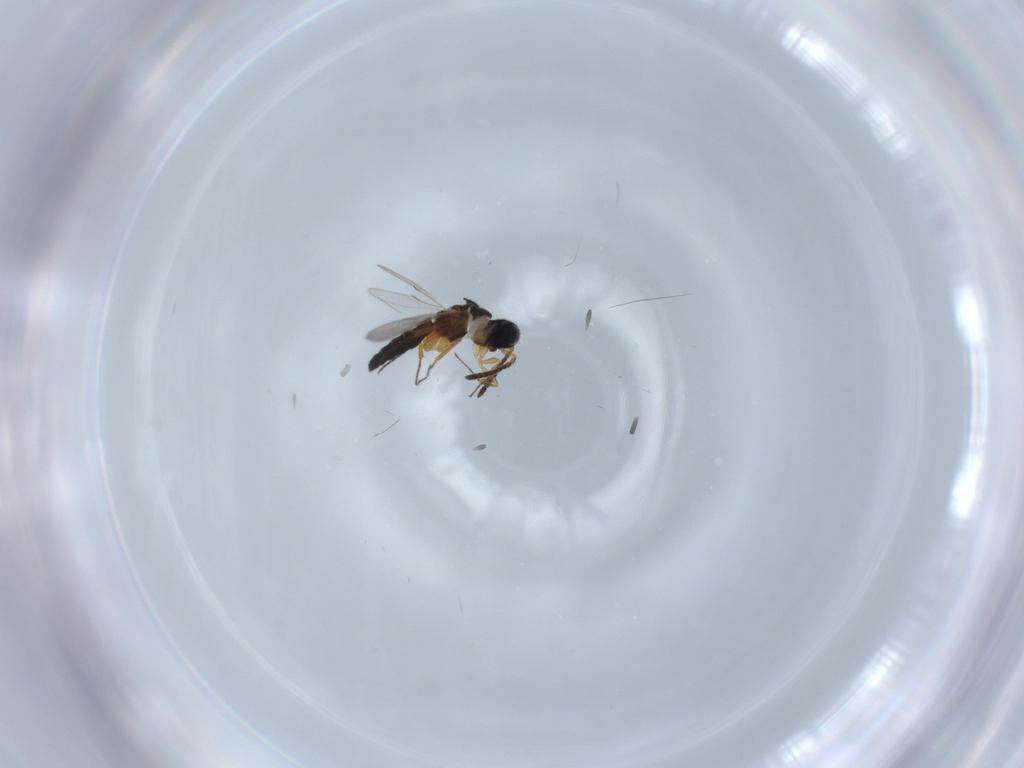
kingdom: Animalia
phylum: Arthropoda
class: Insecta
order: Hymenoptera
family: Scelionidae
